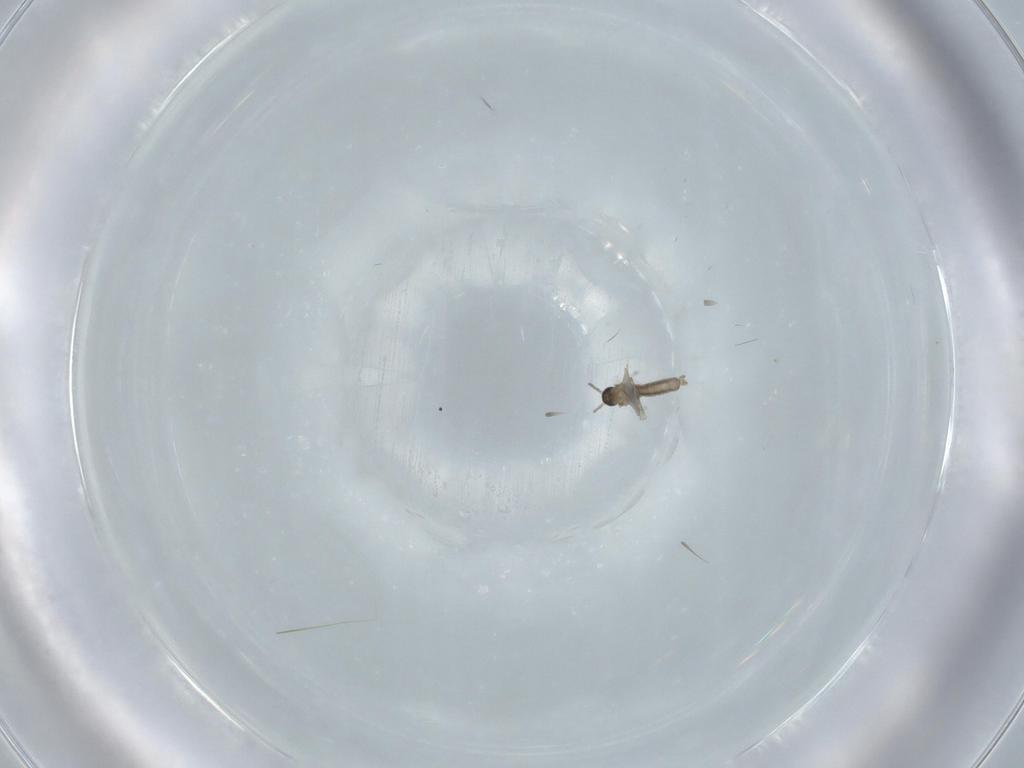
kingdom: Animalia
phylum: Arthropoda
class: Insecta
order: Diptera
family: Cecidomyiidae
